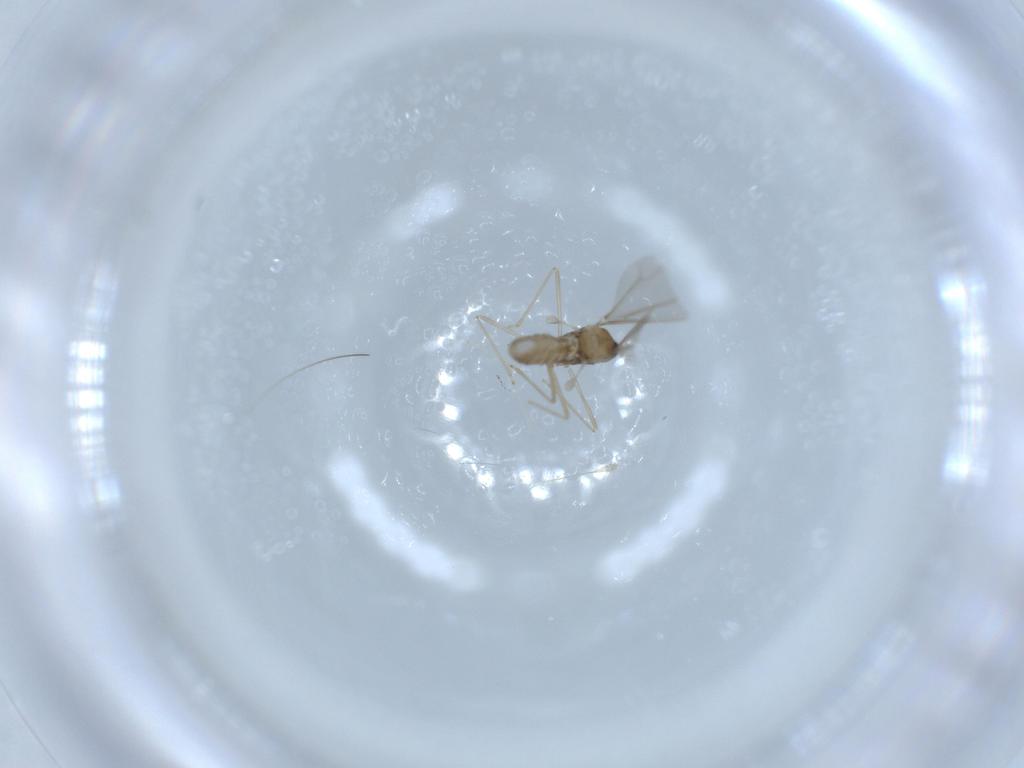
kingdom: Animalia
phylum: Arthropoda
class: Insecta
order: Diptera
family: Cecidomyiidae
